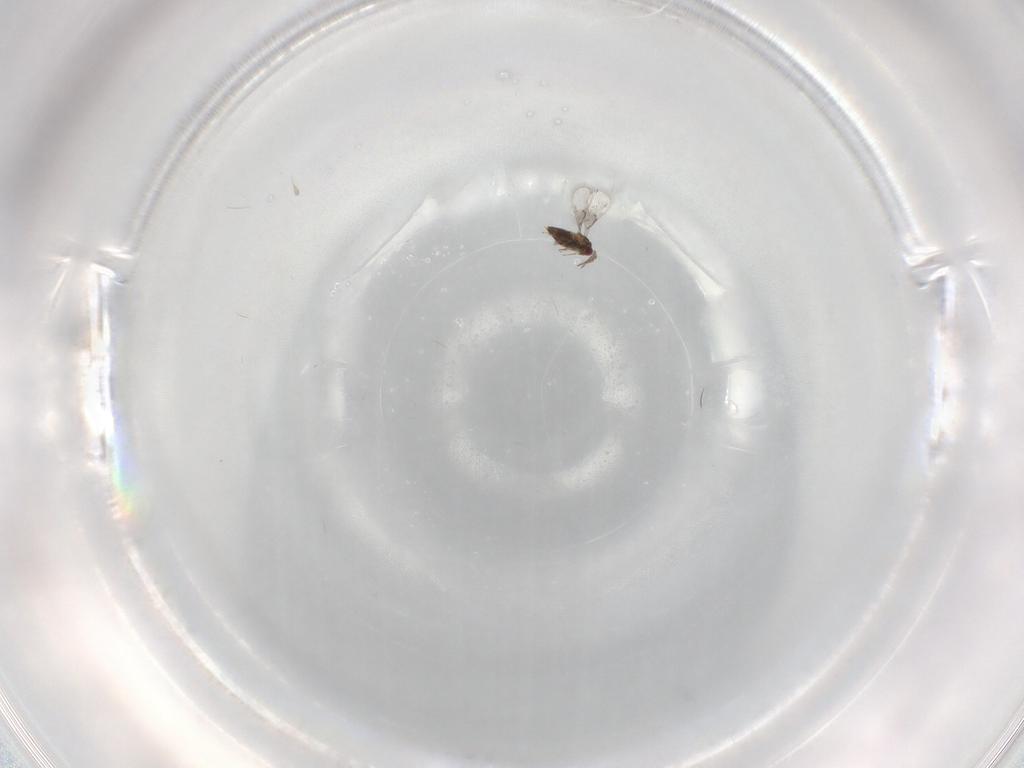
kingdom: Animalia
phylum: Arthropoda
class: Insecta
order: Hymenoptera
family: Trichogrammatidae
